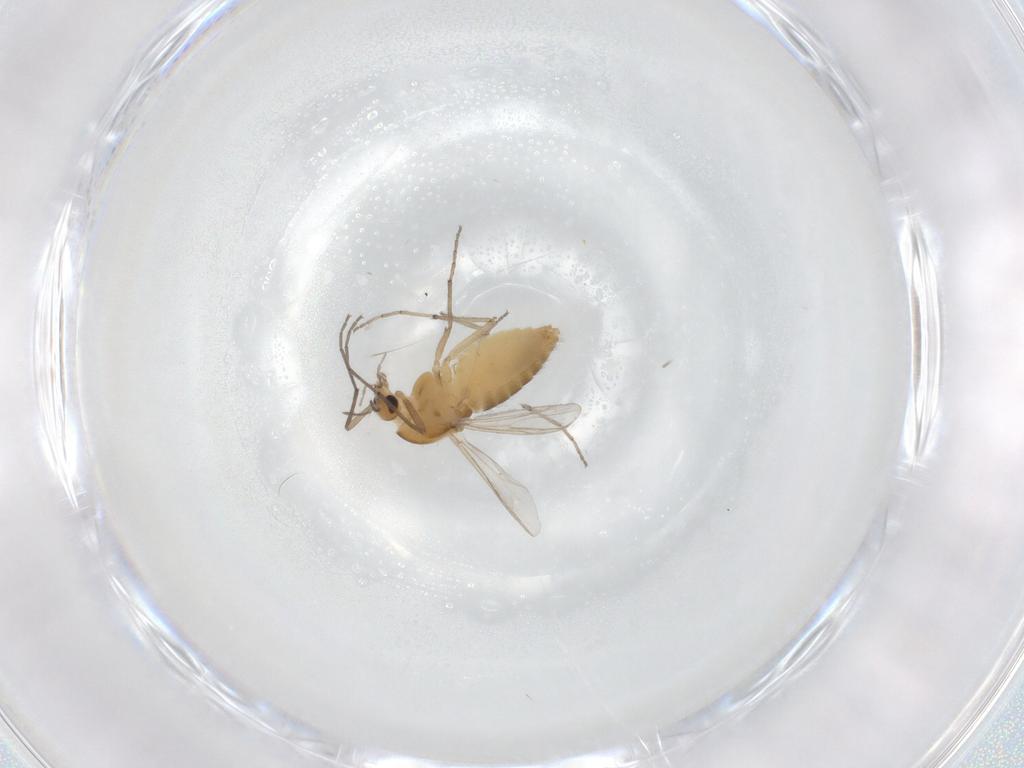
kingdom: Animalia
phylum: Arthropoda
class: Insecta
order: Diptera
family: Chironomidae
